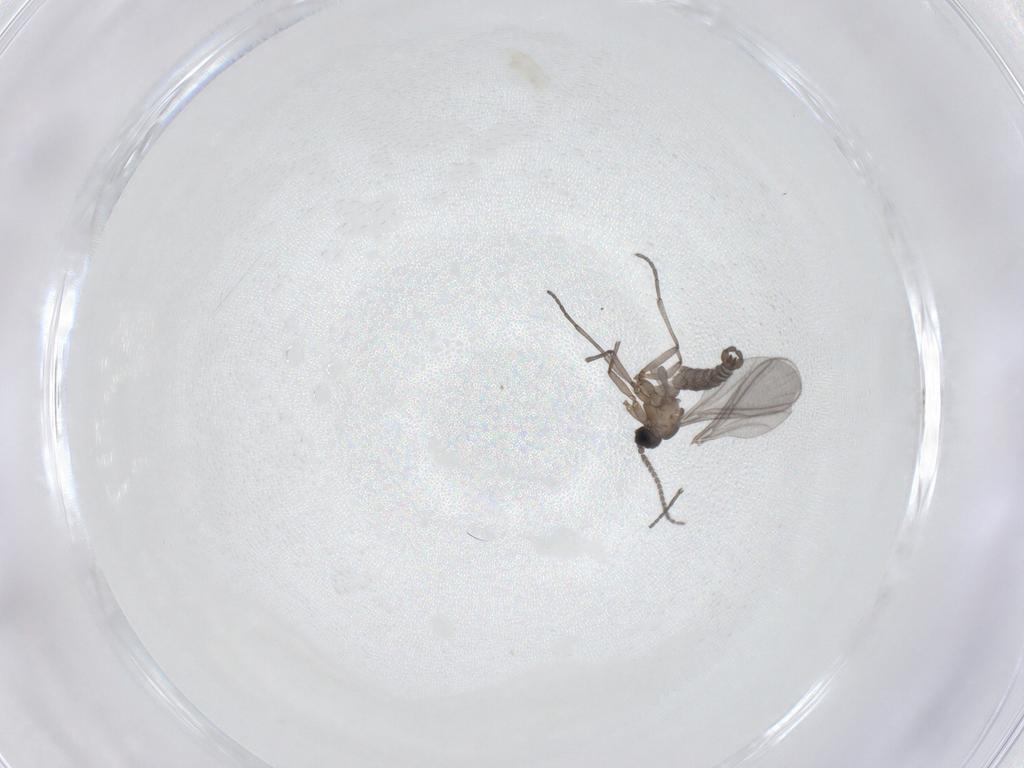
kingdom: Animalia
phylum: Arthropoda
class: Insecta
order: Diptera
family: Sciaridae
